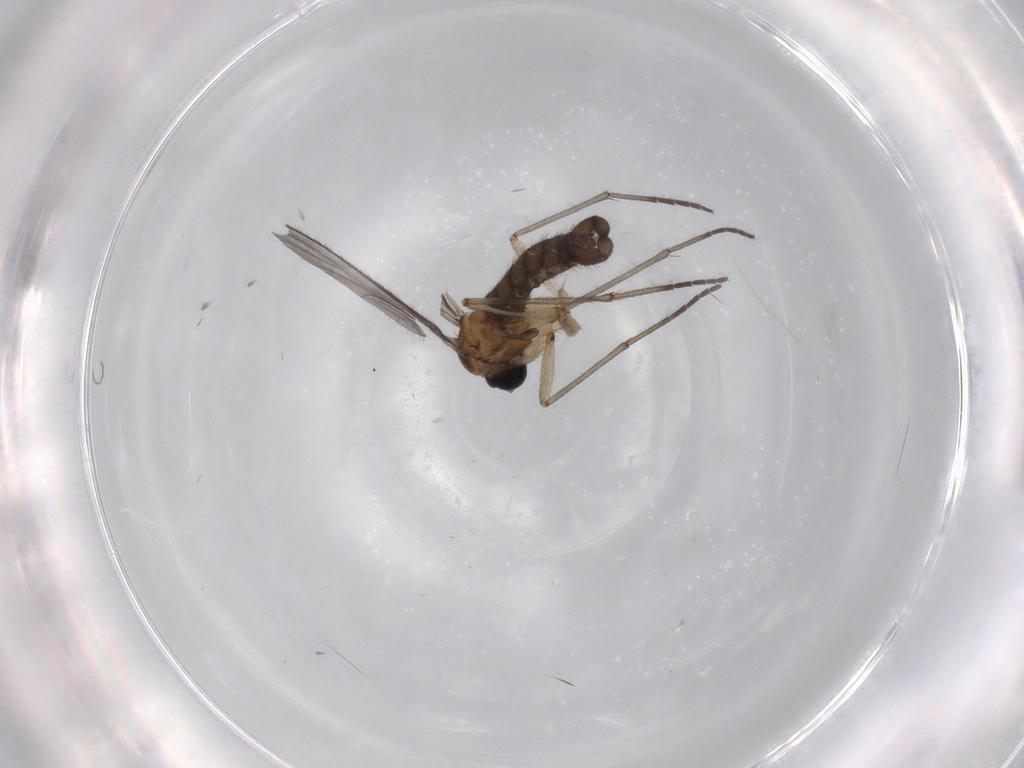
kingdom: Animalia
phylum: Arthropoda
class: Insecta
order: Diptera
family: Sciaridae
